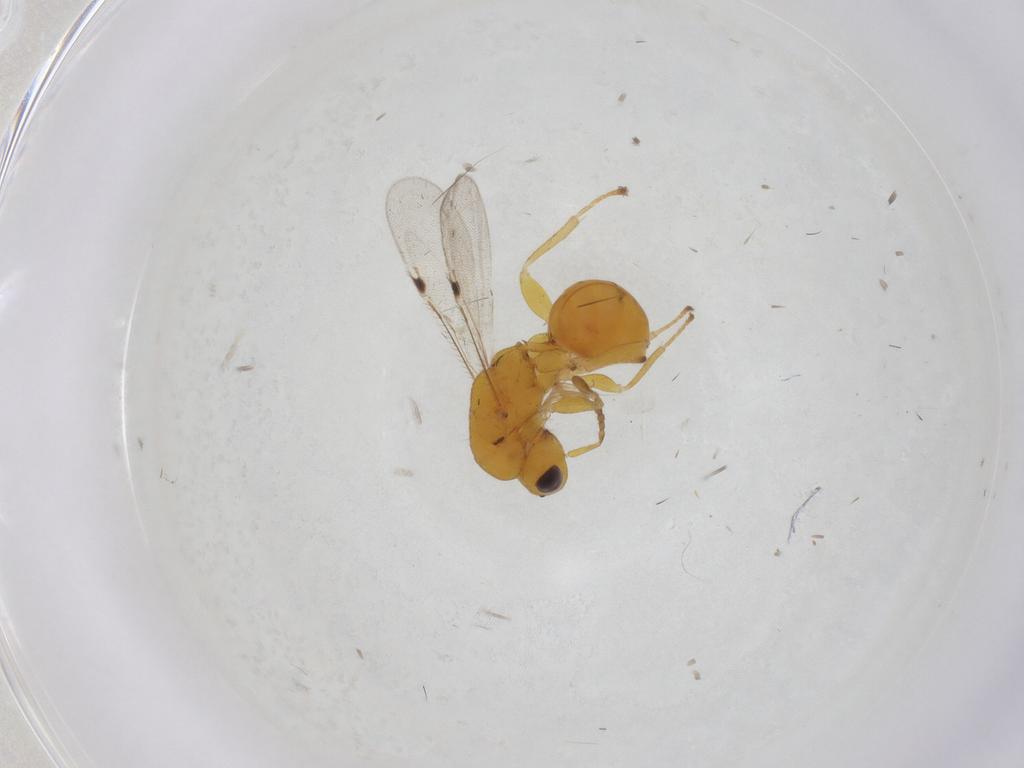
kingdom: Animalia
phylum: Arthropoda
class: Insecta
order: Hymenoptera
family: Eurytomidae
